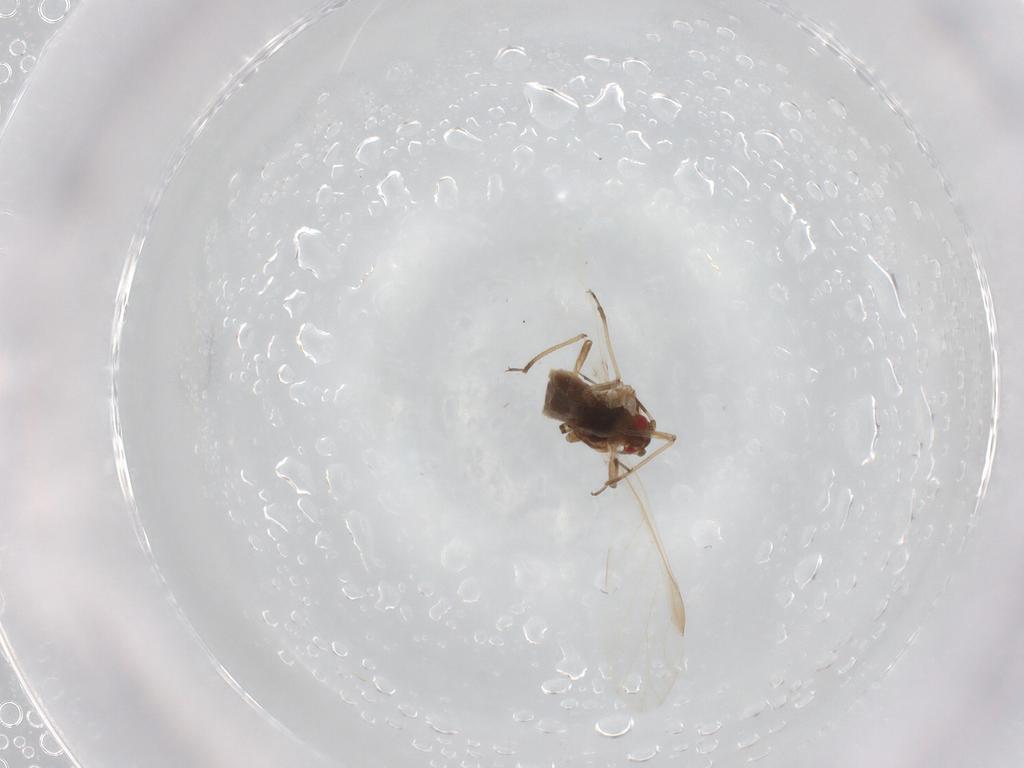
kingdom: Animalia
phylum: Arthropoda
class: Insecta
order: Hemiptera
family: Aphididae
